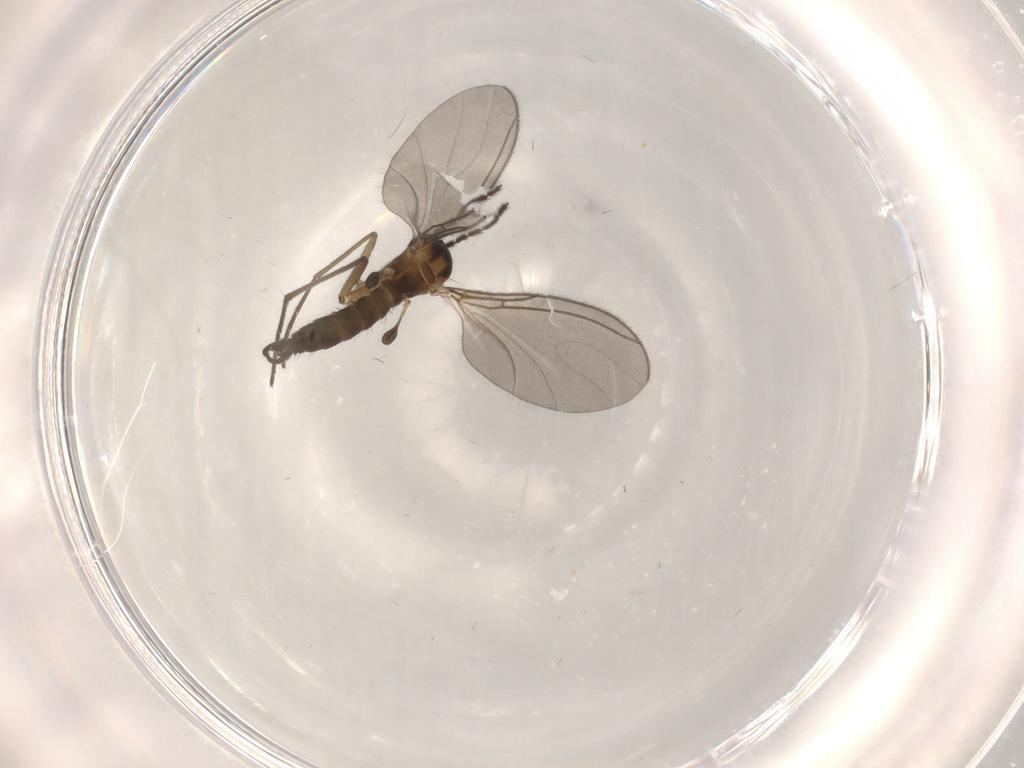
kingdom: Animalia
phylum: Arthropoda
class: Insecta
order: Diptera
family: Sciaridae
